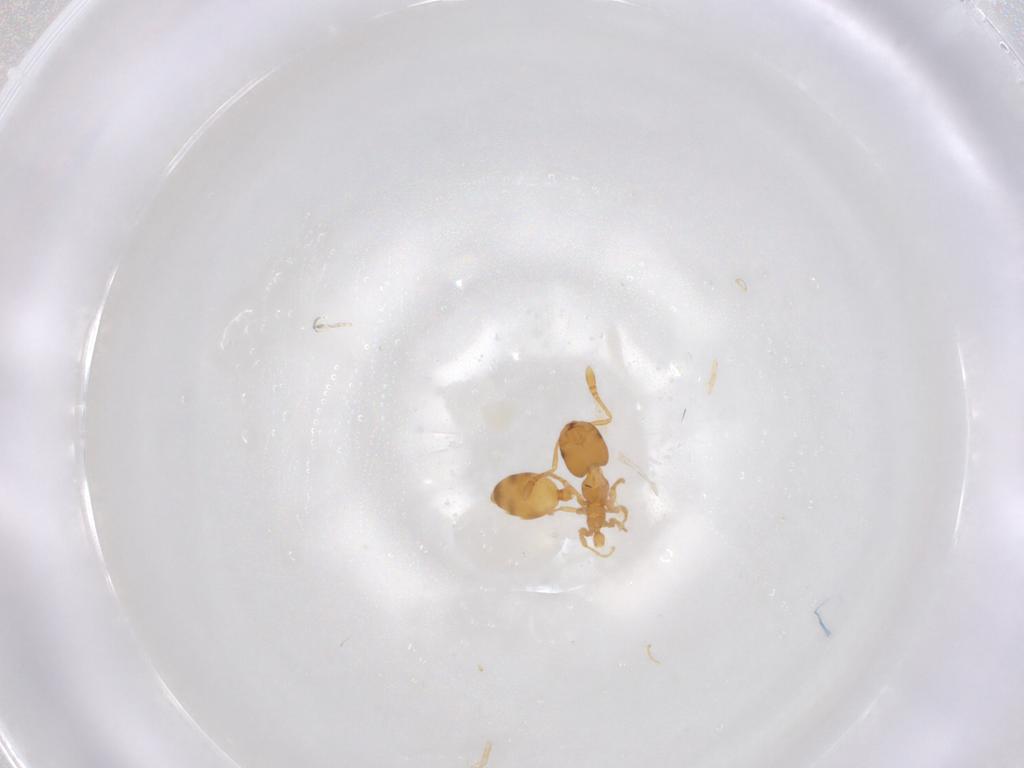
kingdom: Animalia
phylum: Arthropoda
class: Insecta
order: Hymenoptera
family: Formicidae
